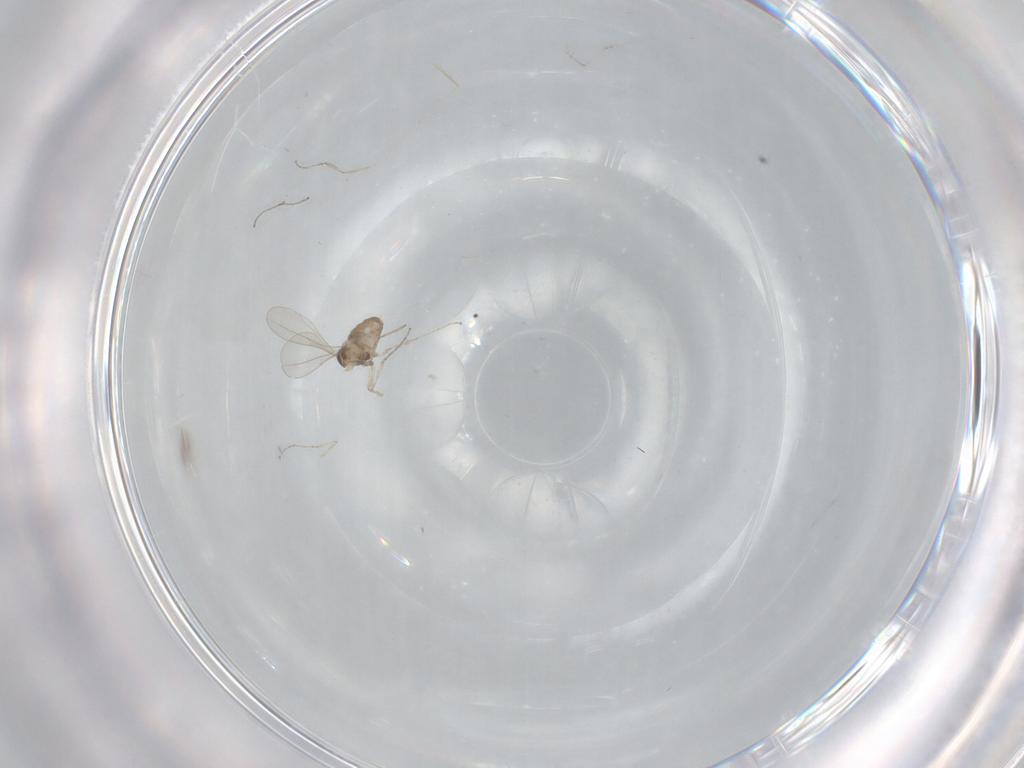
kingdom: Animalia
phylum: Arthropoda
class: Insecta
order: Diptera
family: Cecidomyiidae
